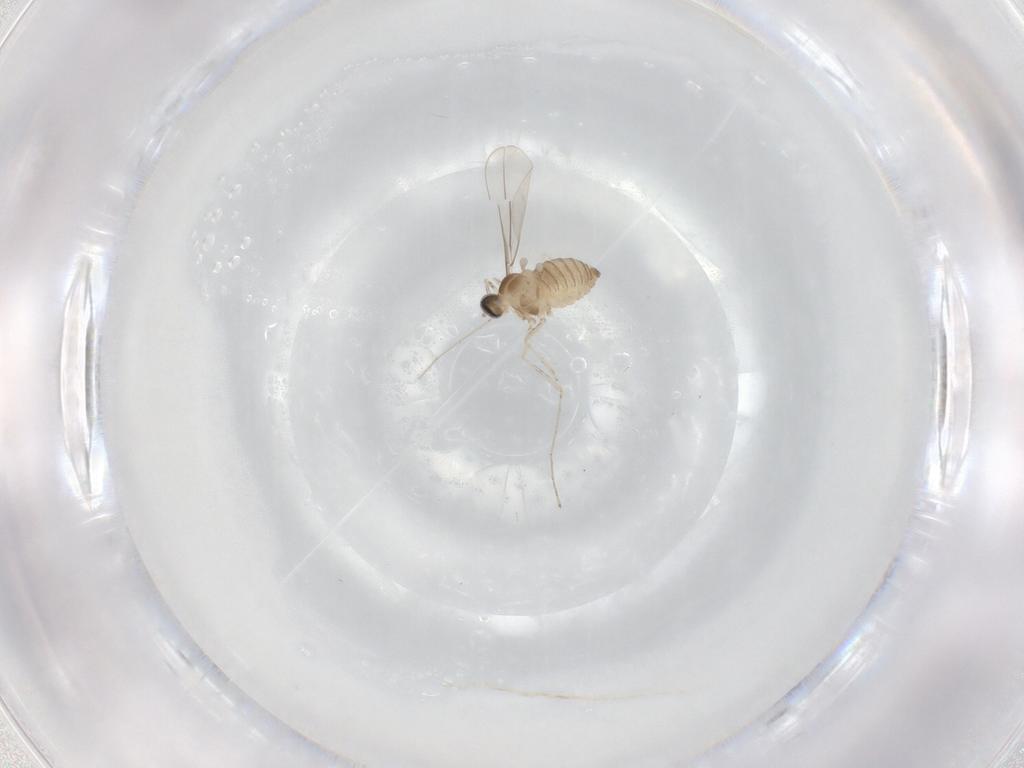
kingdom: Animalia
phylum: Arthropoda
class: Insecta
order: Diptera
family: Cecidomyiidae
